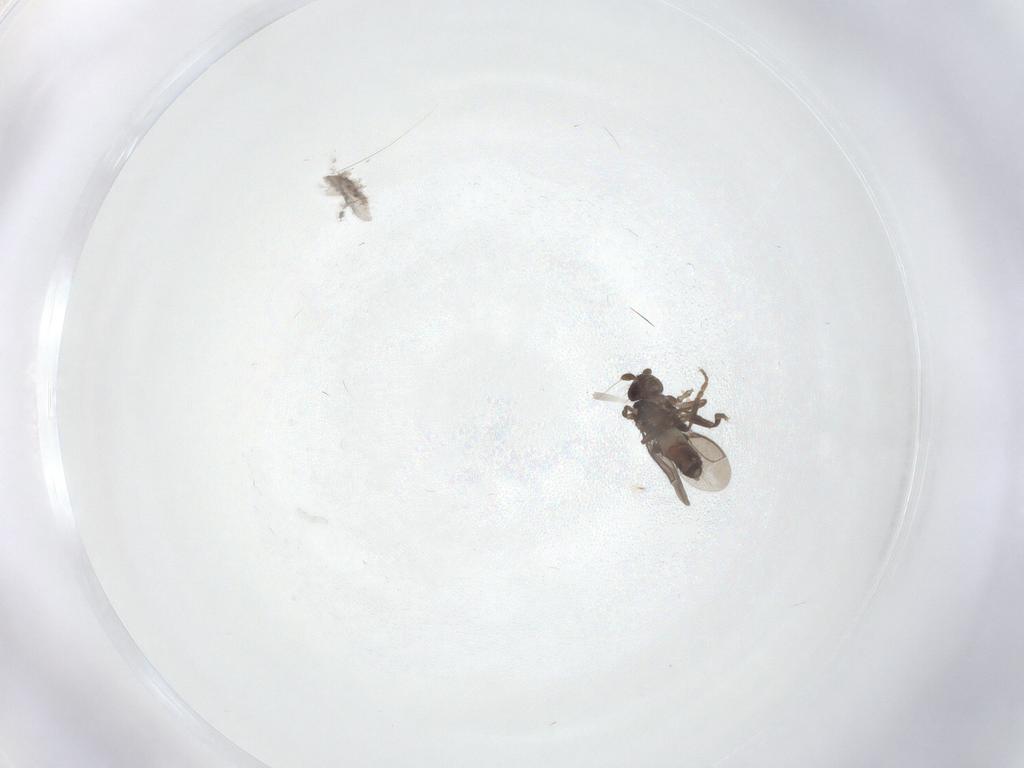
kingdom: Animalia
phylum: Arthropoda
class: Insecta
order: Diptera
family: Sphaeroceridae
